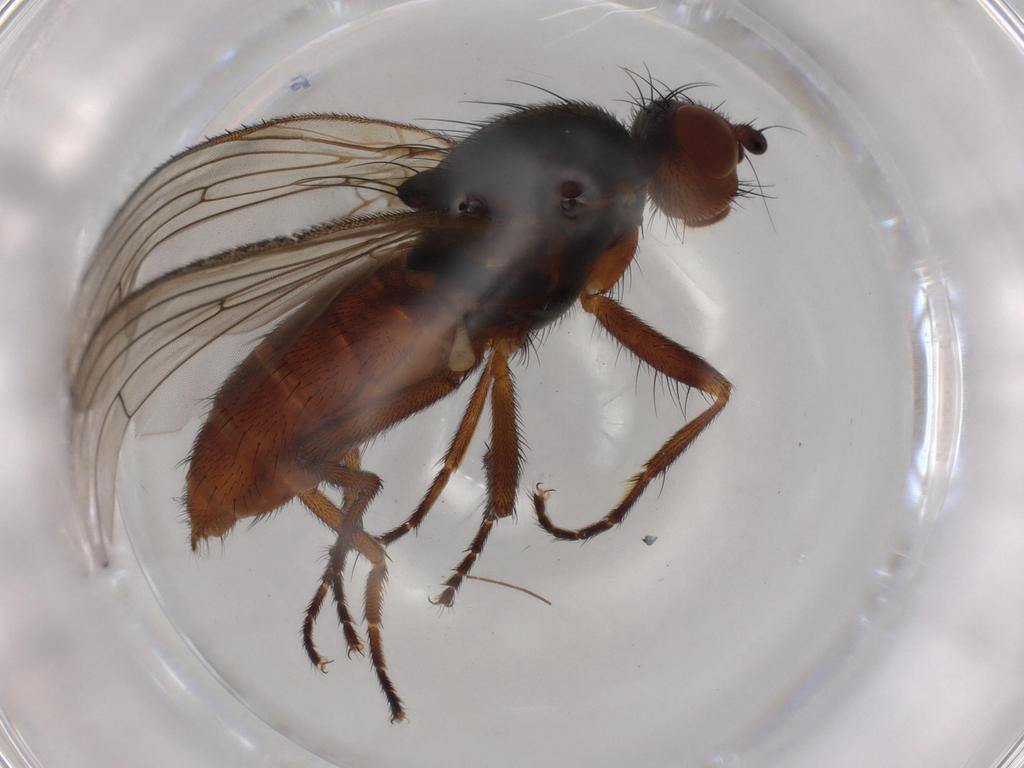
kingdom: Animalia
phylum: Arthropoda
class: Insecta
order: Diptera
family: Heleomyzidae
